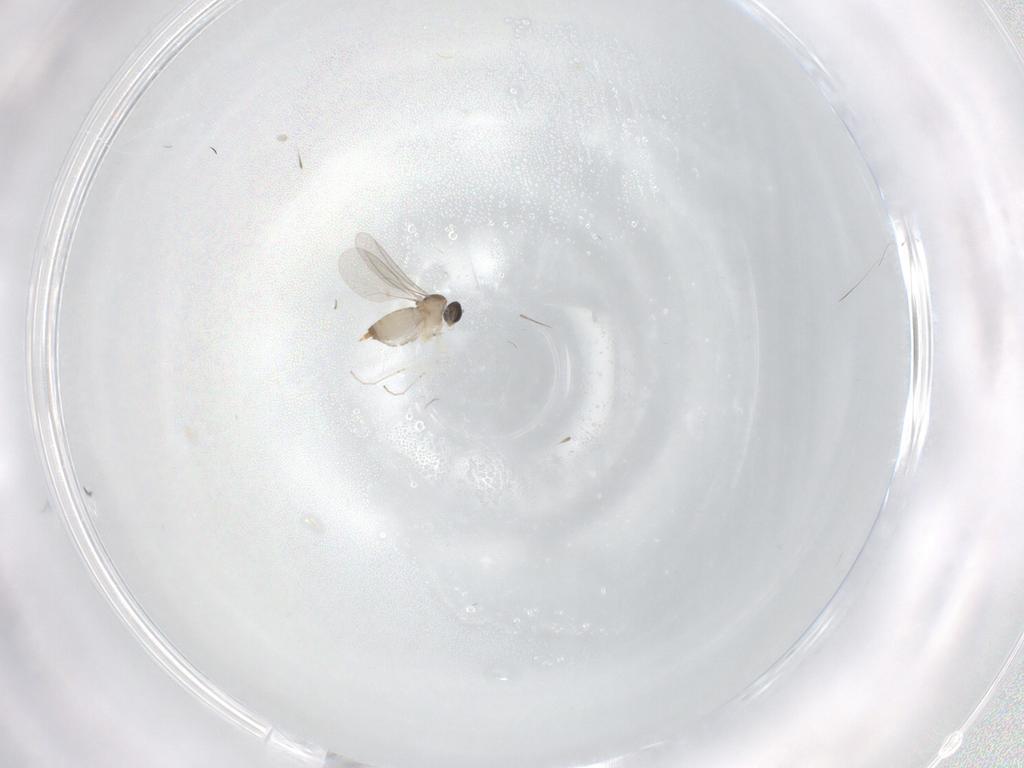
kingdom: Animalia
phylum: Arthropoda
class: Insecta
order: Diptera
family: Cecidomyiidae
